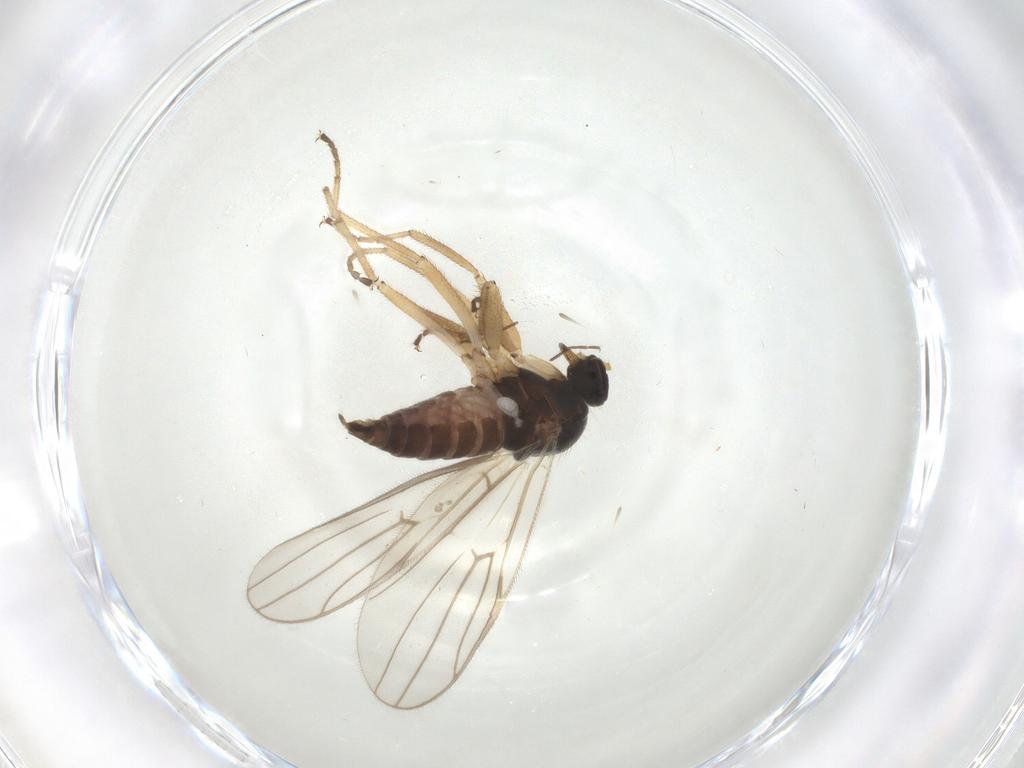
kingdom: Animalia
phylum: Arthropoda
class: Insecta
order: Diptera
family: Hybotidae
